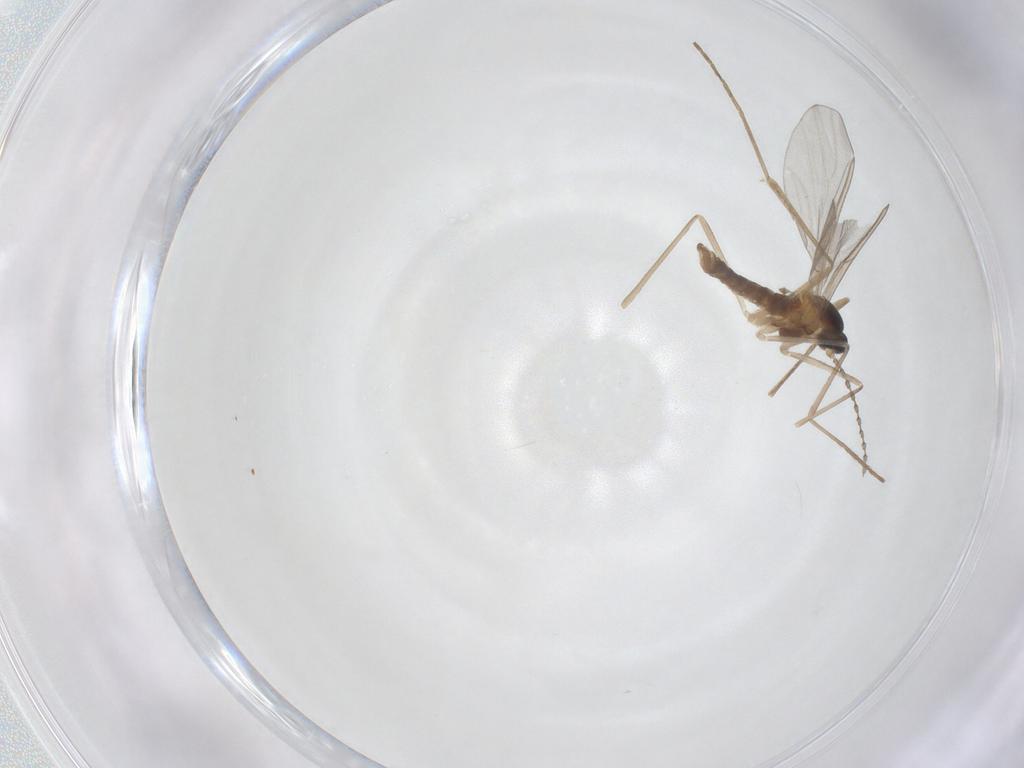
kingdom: Animalia
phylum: Arthropoda
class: Insecta
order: Diptera
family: Cecidomyiidae
